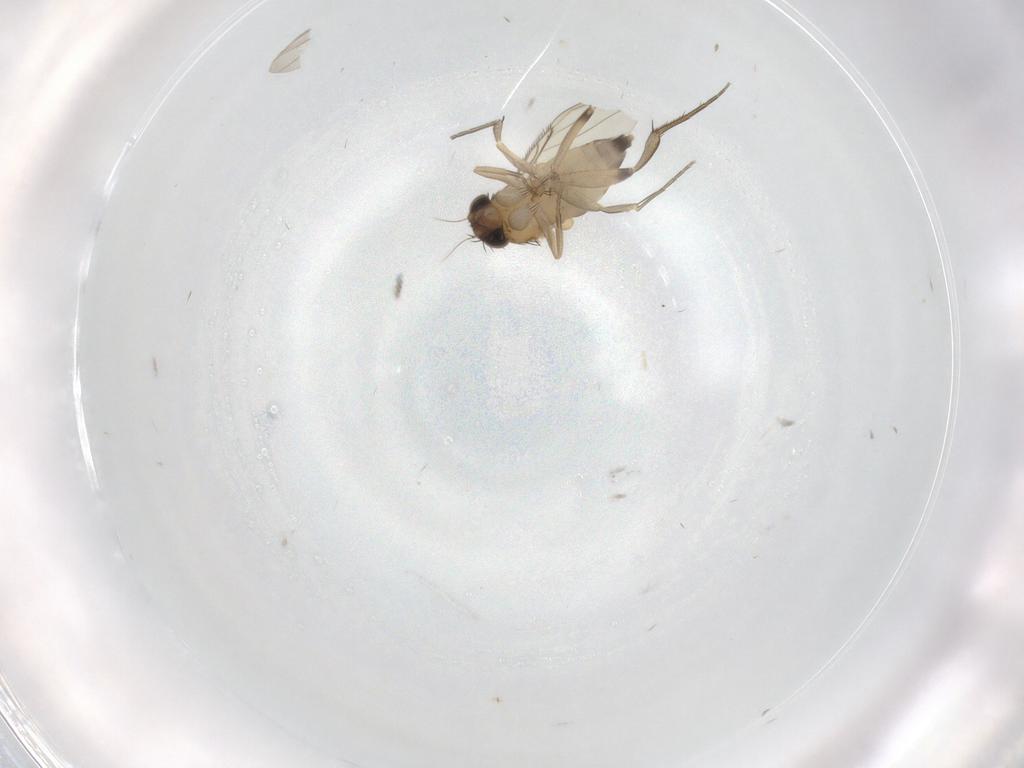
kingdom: Animalia
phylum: Arthropoda
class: Insecta
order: Diptera
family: Phoridae
